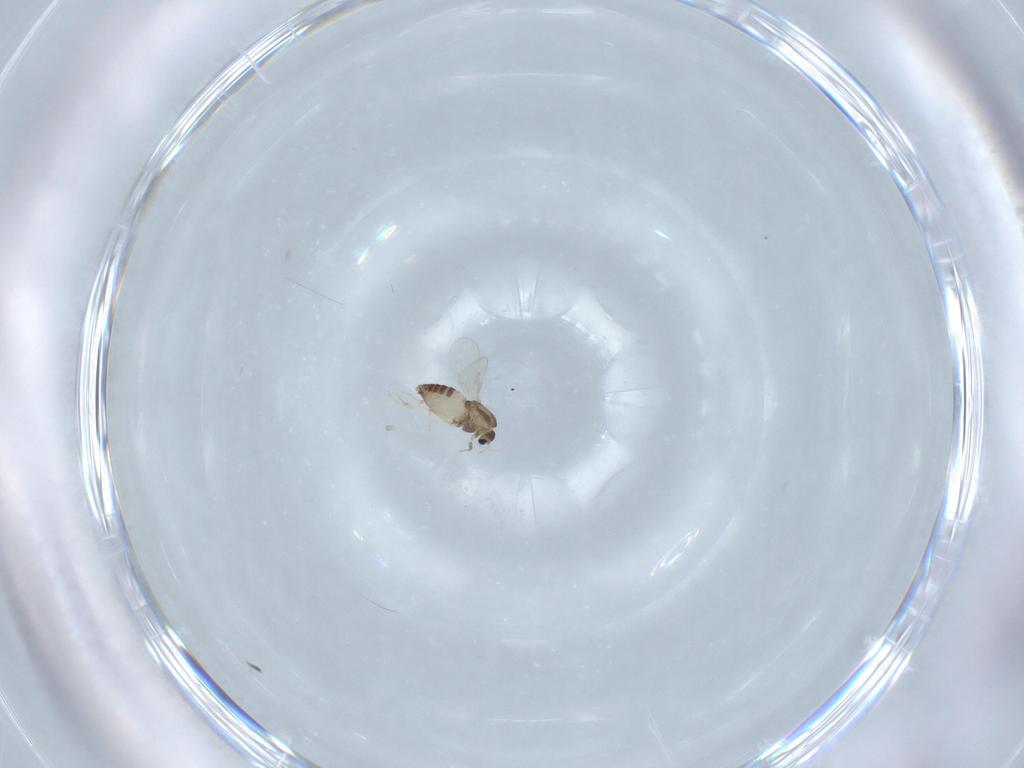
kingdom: Animalia
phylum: Arthropoda
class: Insecta
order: Diptera
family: Chironomidae
